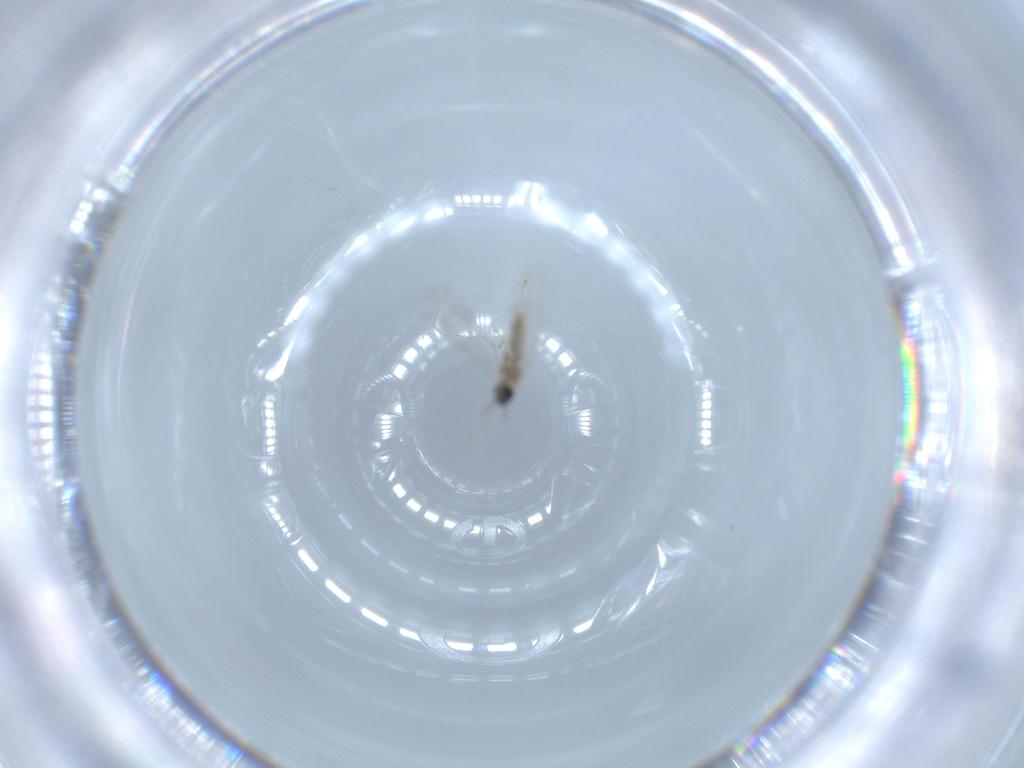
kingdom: Animalia
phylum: Arthropoda
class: Insecta
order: Diptera
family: Cecidomyiidae
